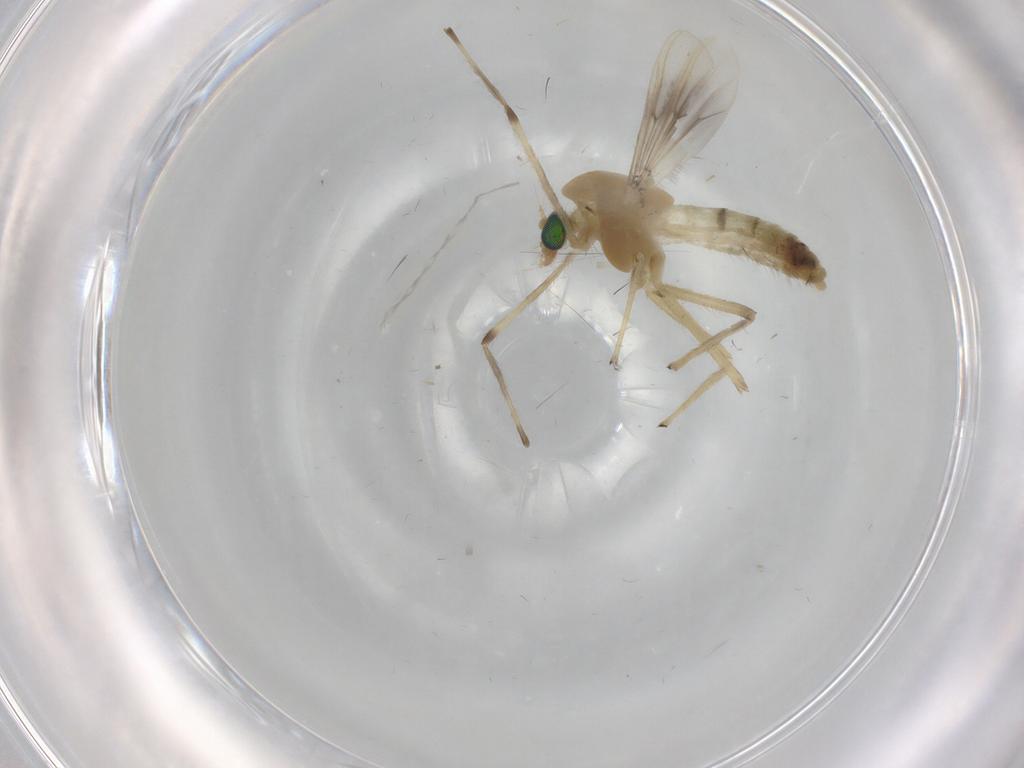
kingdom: Animalia
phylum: Arthropoda
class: Insecta
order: Diptera
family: Chironomidae
